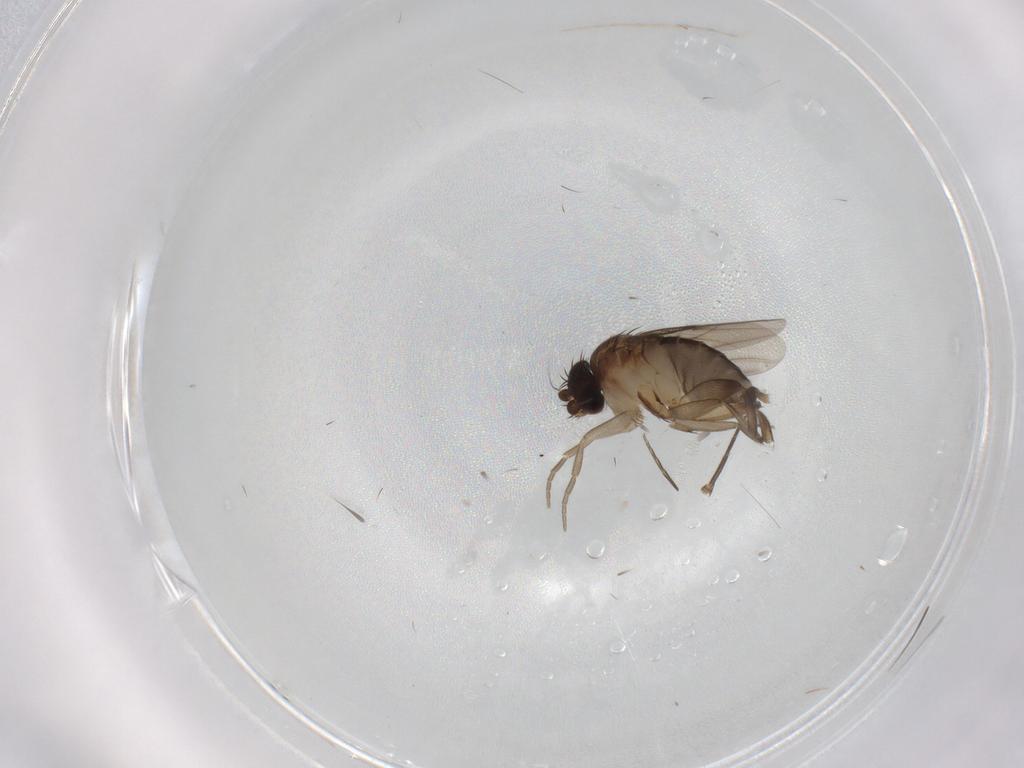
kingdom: Animalia
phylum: Arthropoda
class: Insecta
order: Diptera
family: Phoridae
